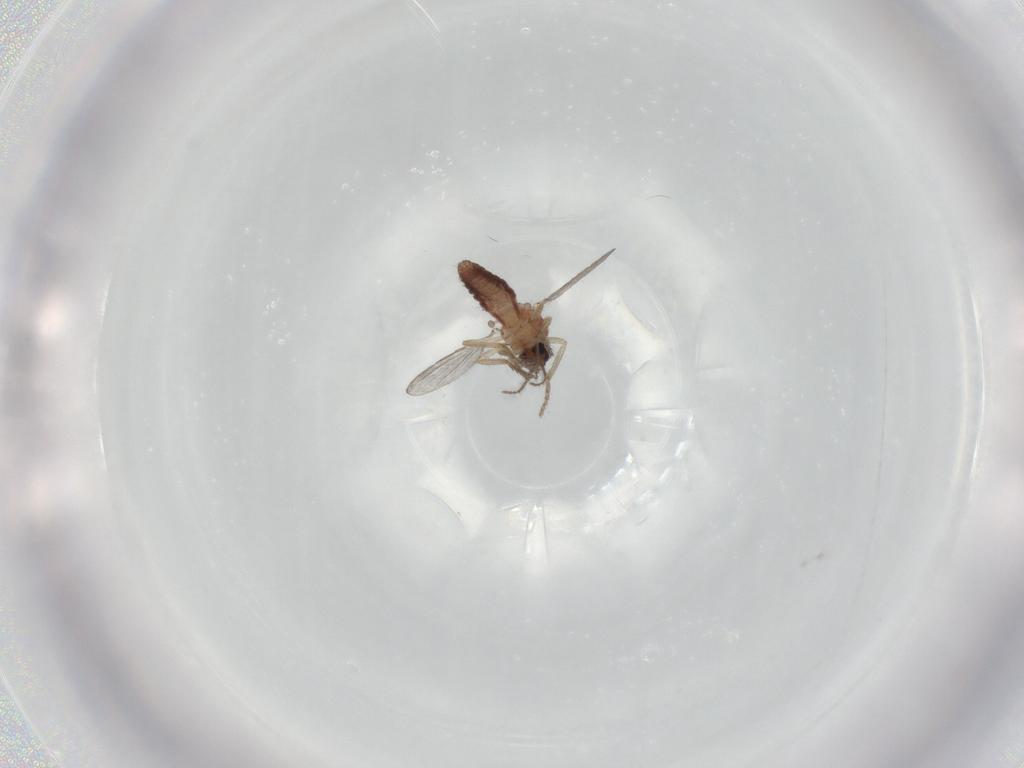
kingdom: Animalia
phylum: Arthropoda
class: Insecta
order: Diptera
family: Ceratopogonidae
